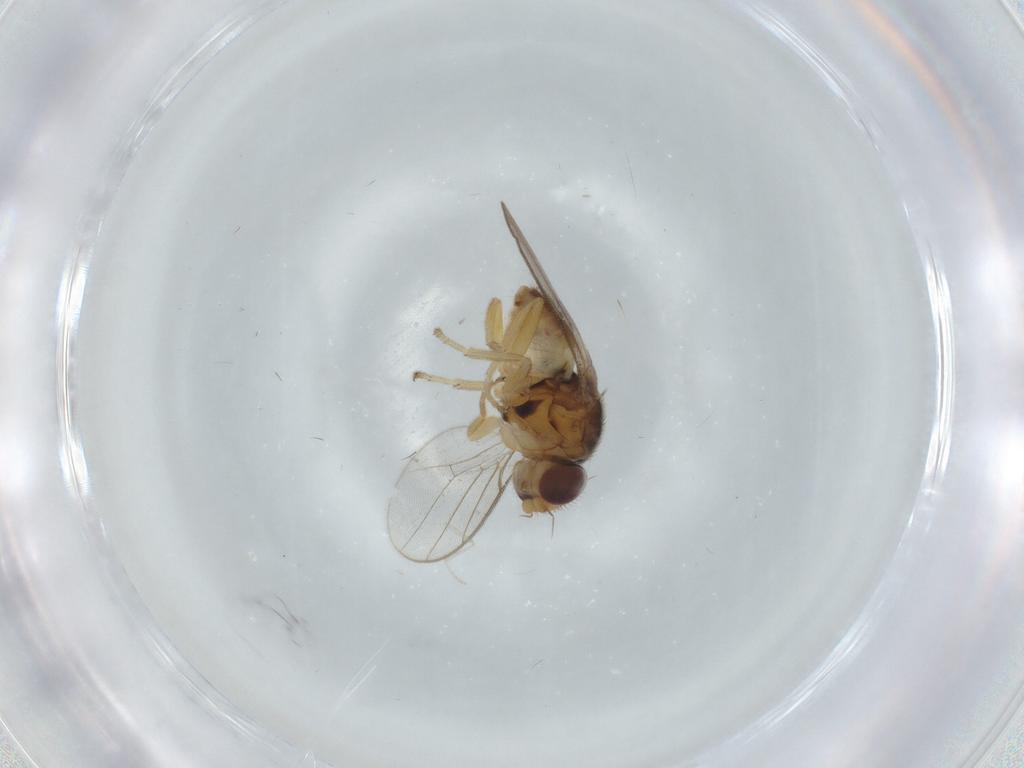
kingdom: Animalia
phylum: Arthropoda
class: Insecta
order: Diptera
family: Chloropidae
